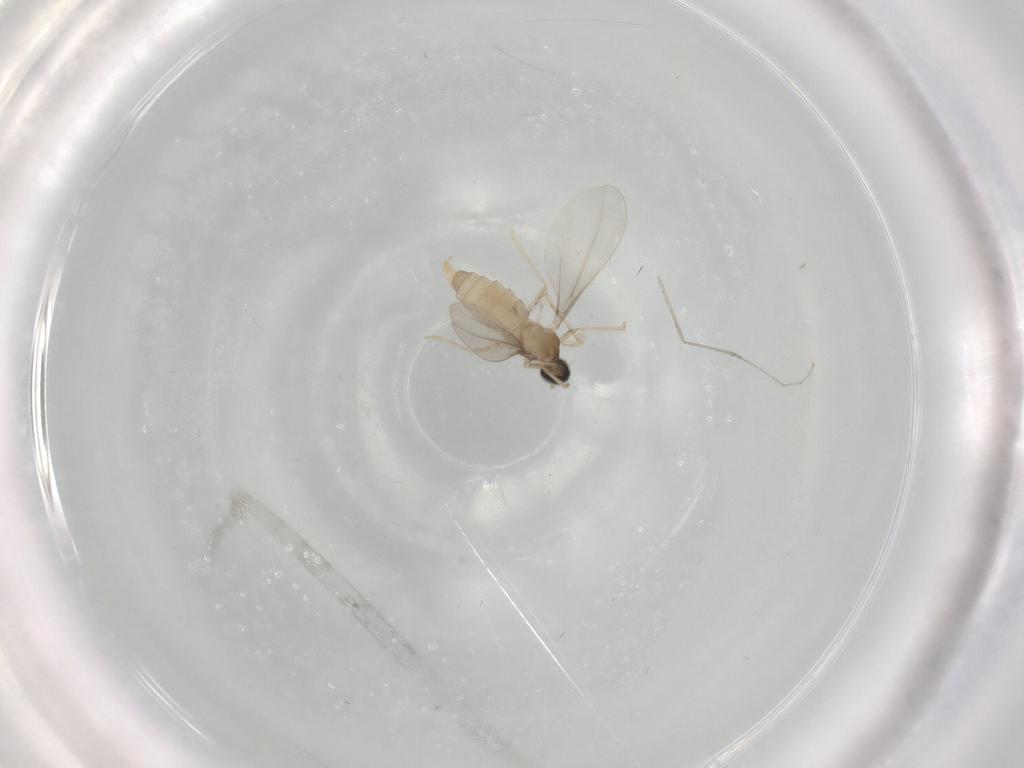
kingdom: Animalia
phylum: Arthropoda
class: Insecta
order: Diptera
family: Cecidomyiidae
